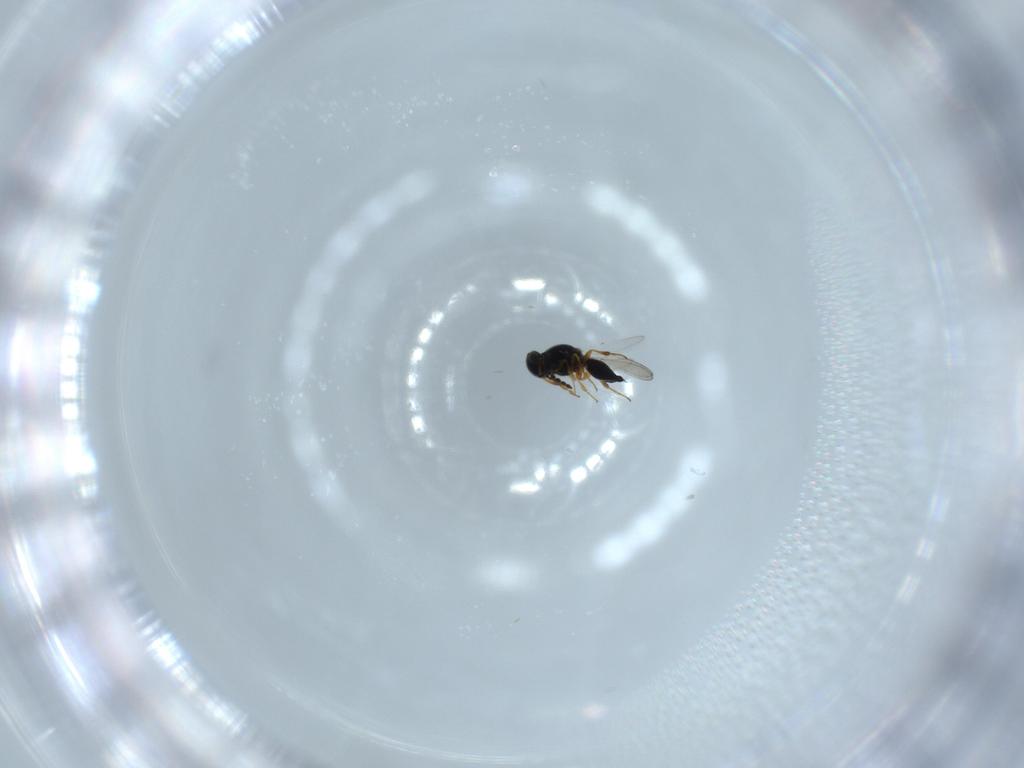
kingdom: Animalia
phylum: Arthropoda
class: Insecta
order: Hymenoptera
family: Platygastridae
